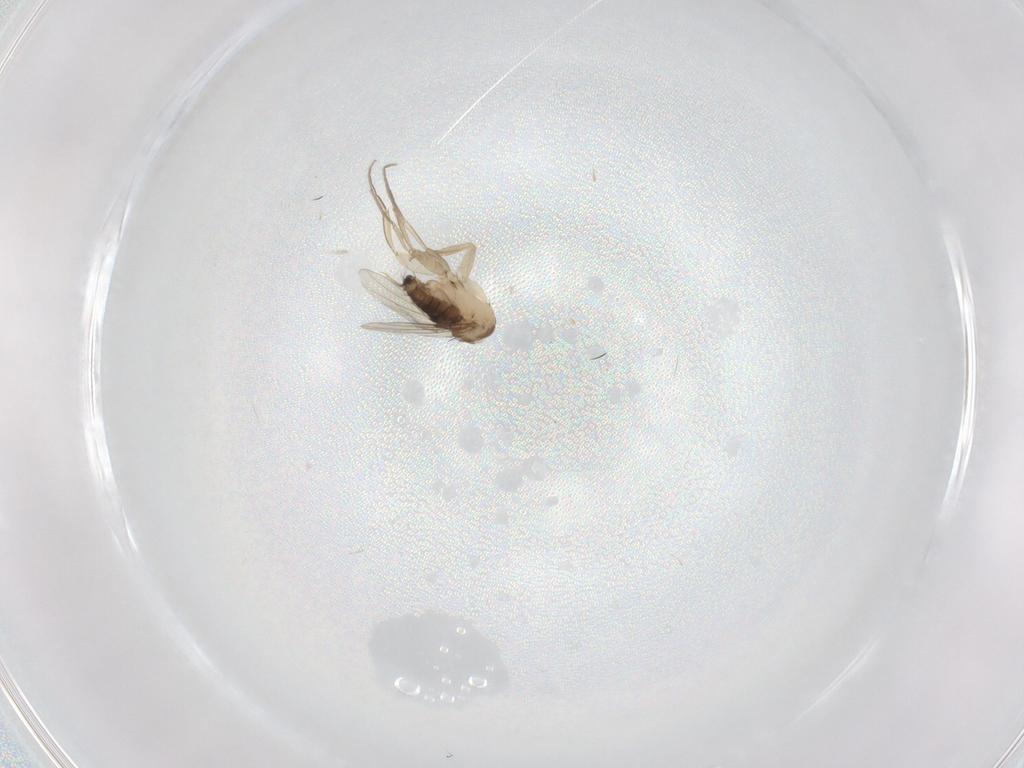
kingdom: Animalia
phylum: Arthropoda
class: Insecta
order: Diptera
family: Phoridae
